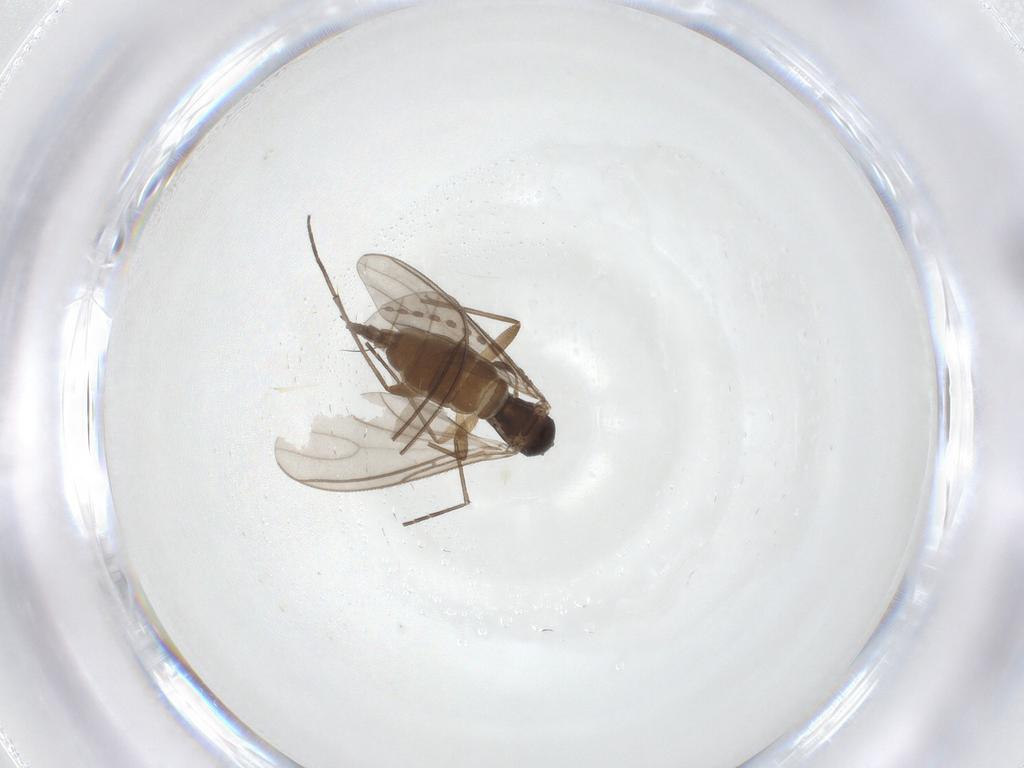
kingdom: Animalia
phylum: Arthropoda
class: Insecta
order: Diptera
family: Sciaridae
